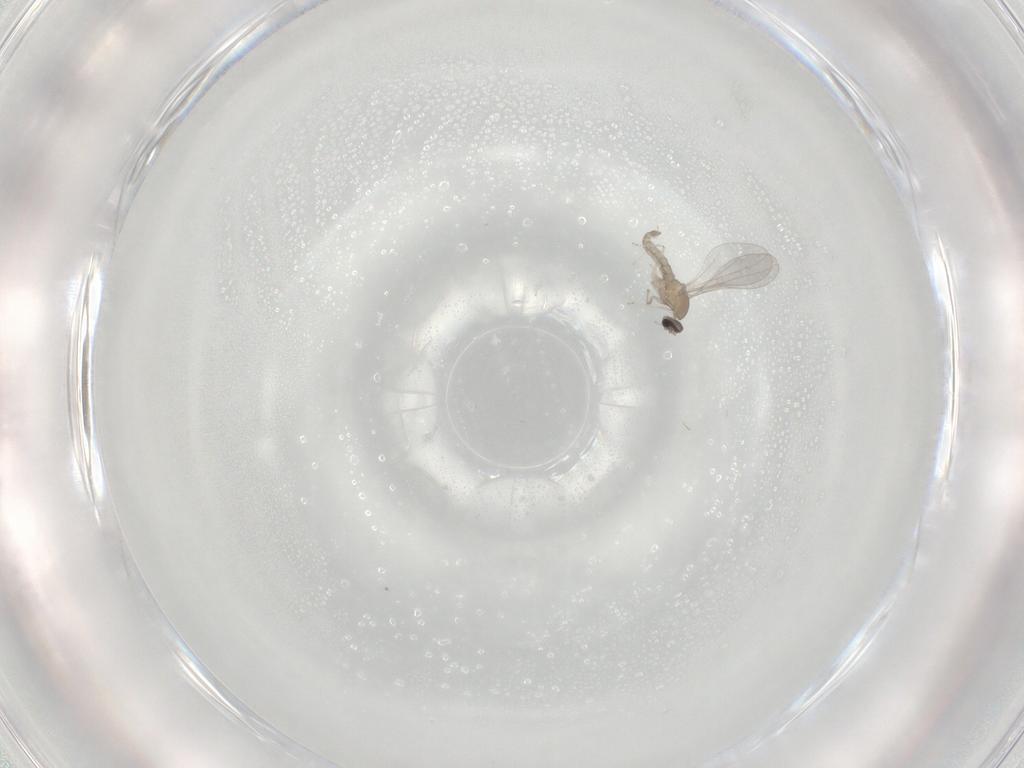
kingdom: Animalia
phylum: Arthropoda
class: Insecta
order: Diptera
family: Cecidomyiidae
